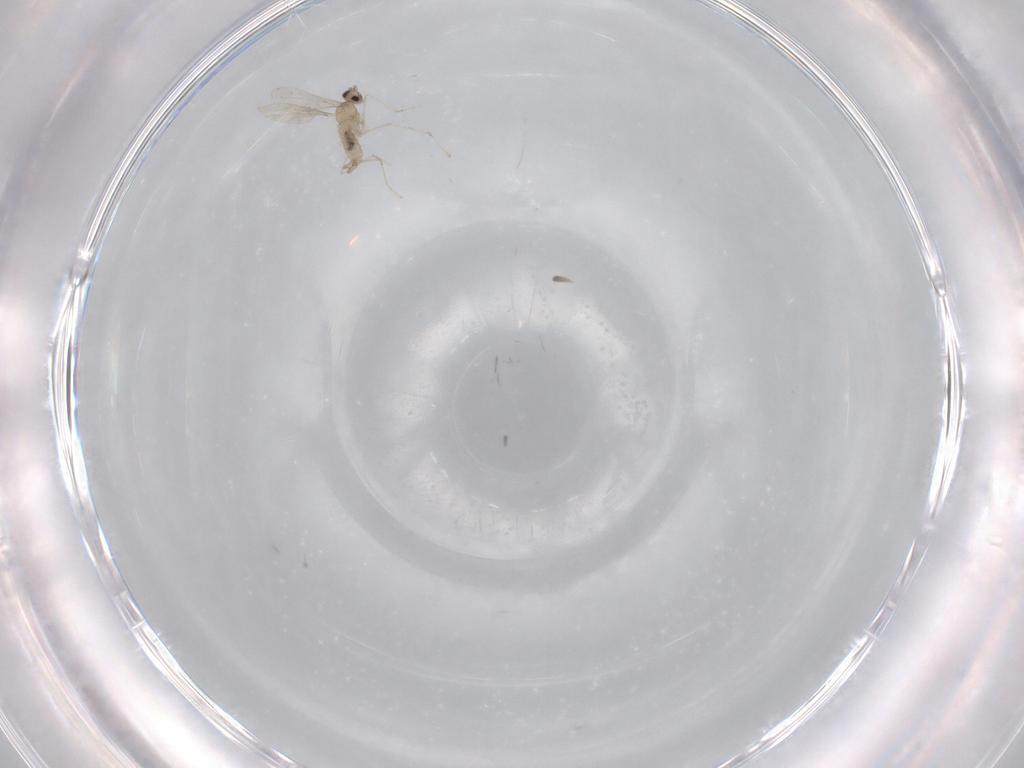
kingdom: Animalia
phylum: Arthropoda
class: Insecta
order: Diptera
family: Cecidomyiidae
